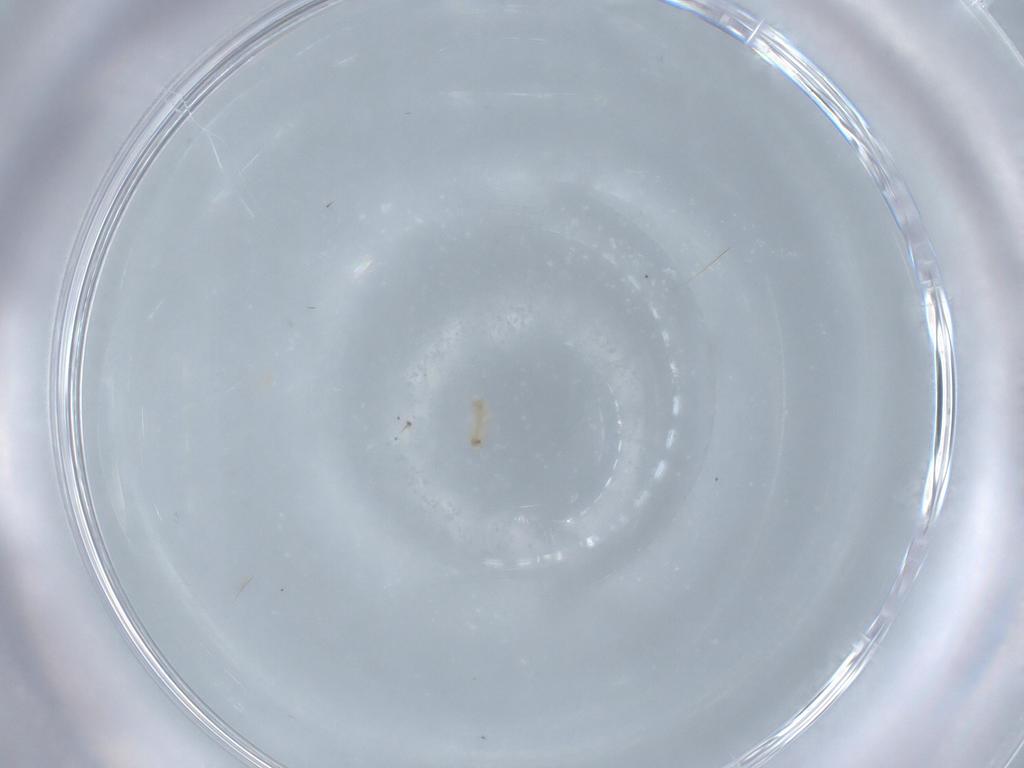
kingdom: Animalia
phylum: Arthropoda
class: Insecta
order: Diptera
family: Cecidomyiidae
